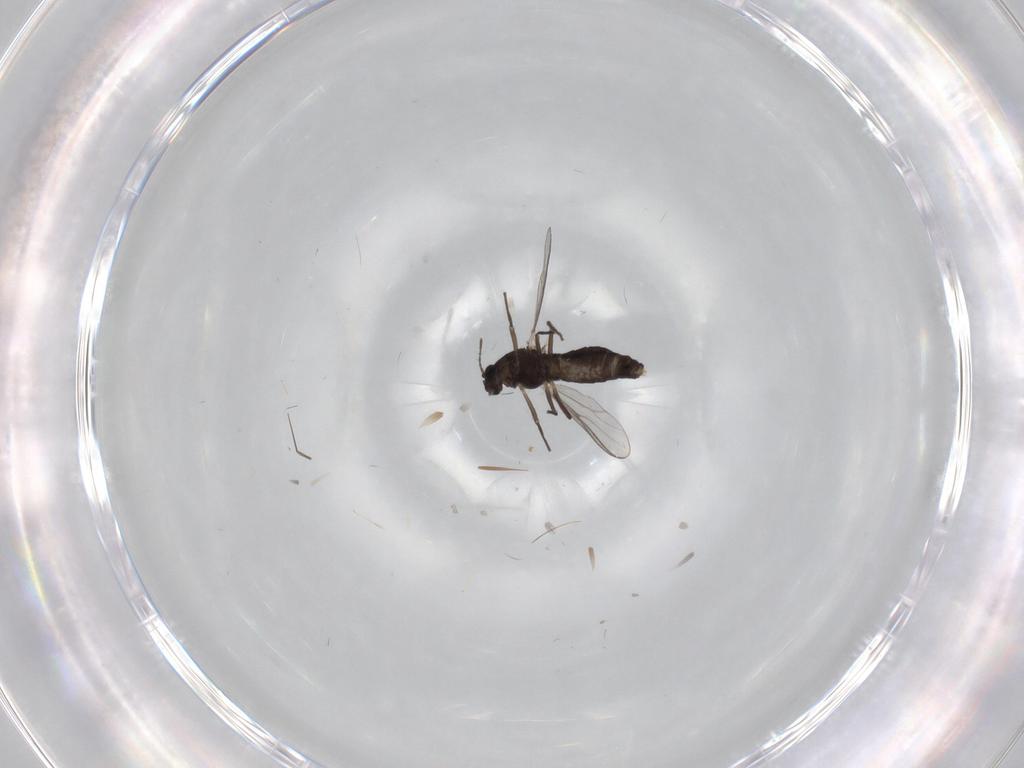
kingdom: Animalia
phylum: Arthropoda
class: Insecta
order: Diptera
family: Chironomidae
